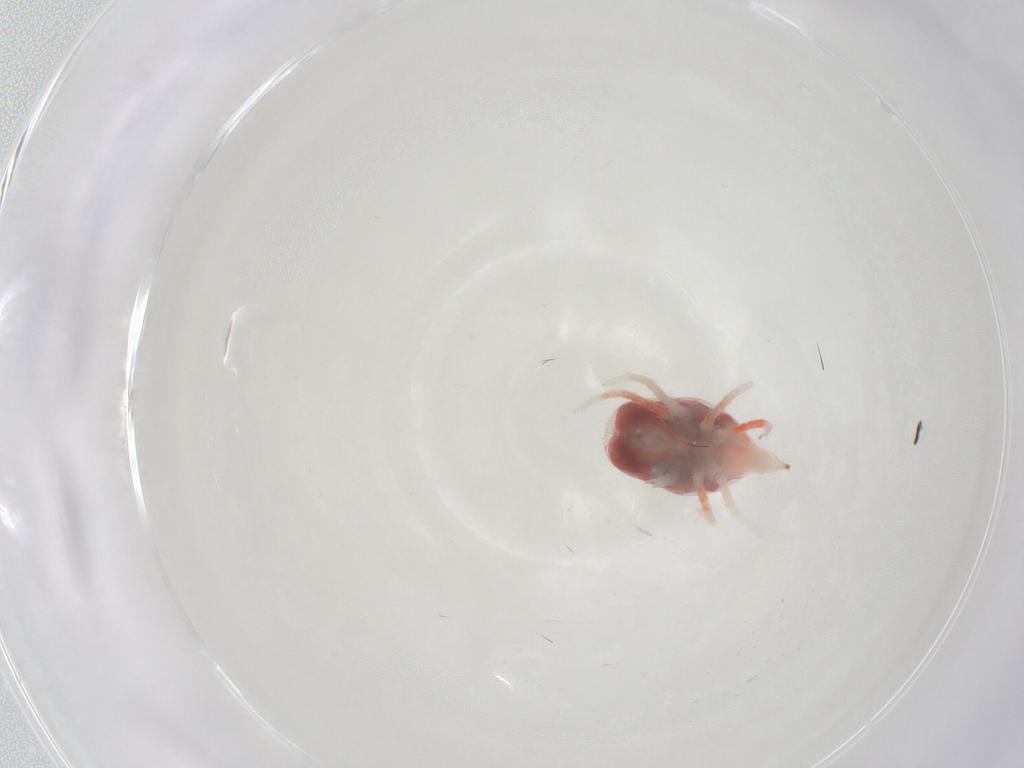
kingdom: Animalia
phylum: Arthropoda
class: Arachnida
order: Trombidiformes
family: Bdellidae
